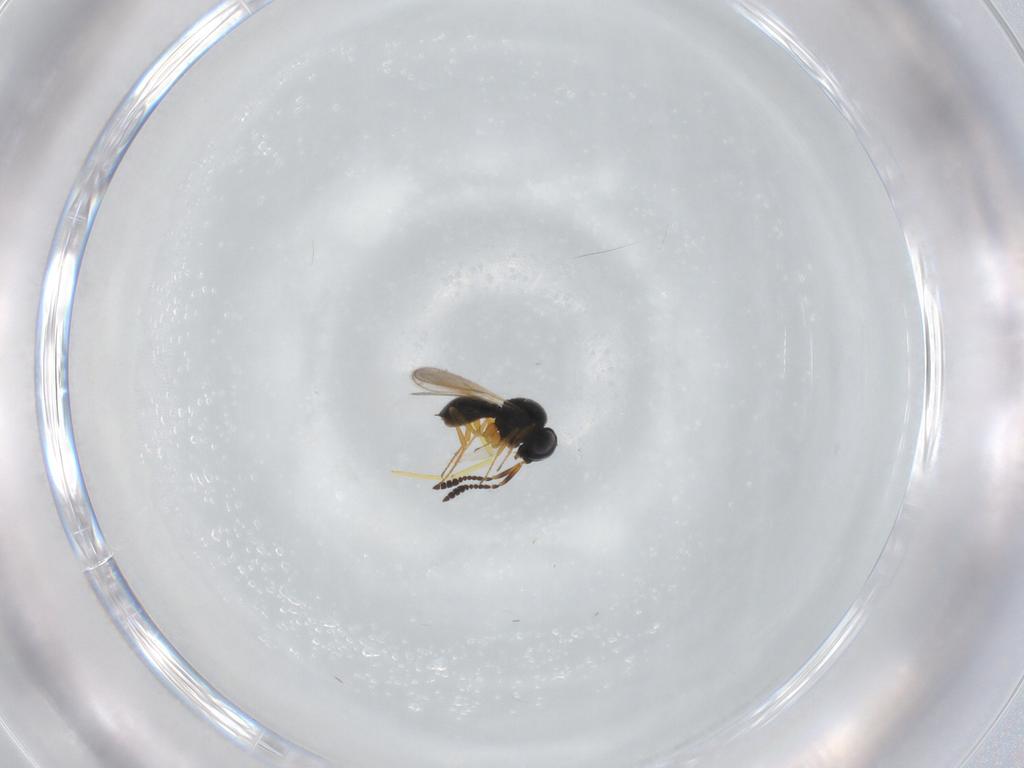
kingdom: Animalia
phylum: Arthropoda
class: Insecta
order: Hymenoptera
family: Scelionidae
